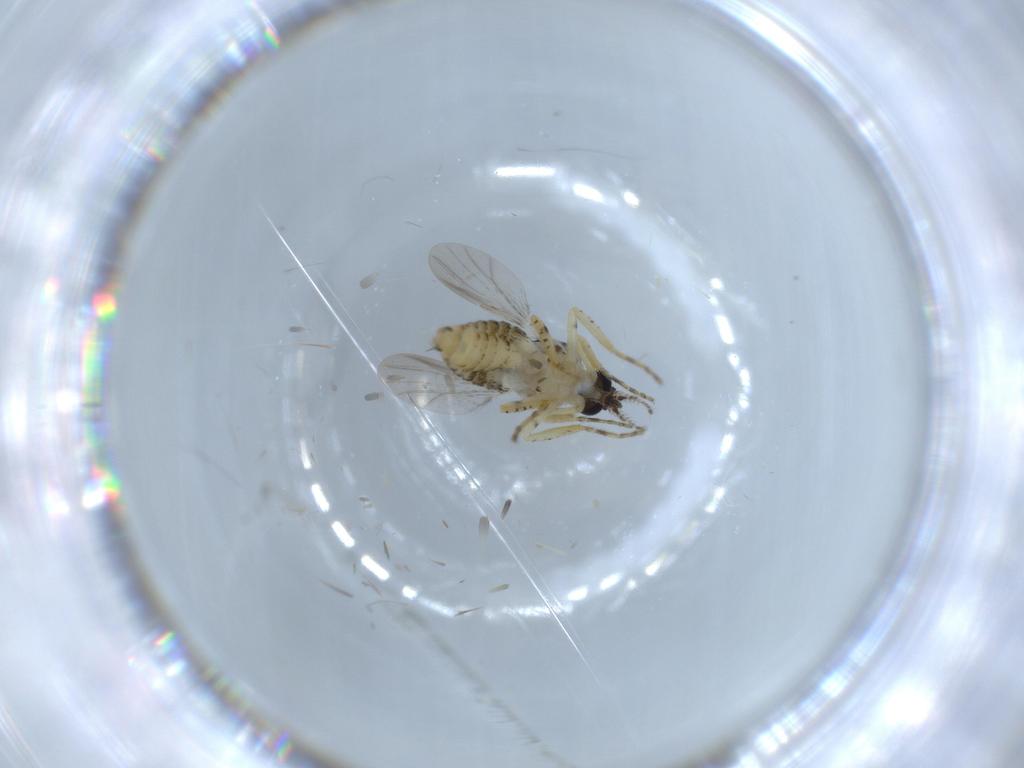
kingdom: Animalia
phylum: Arthropoda
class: Insecta
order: Diptera
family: Ceratopogonidae
